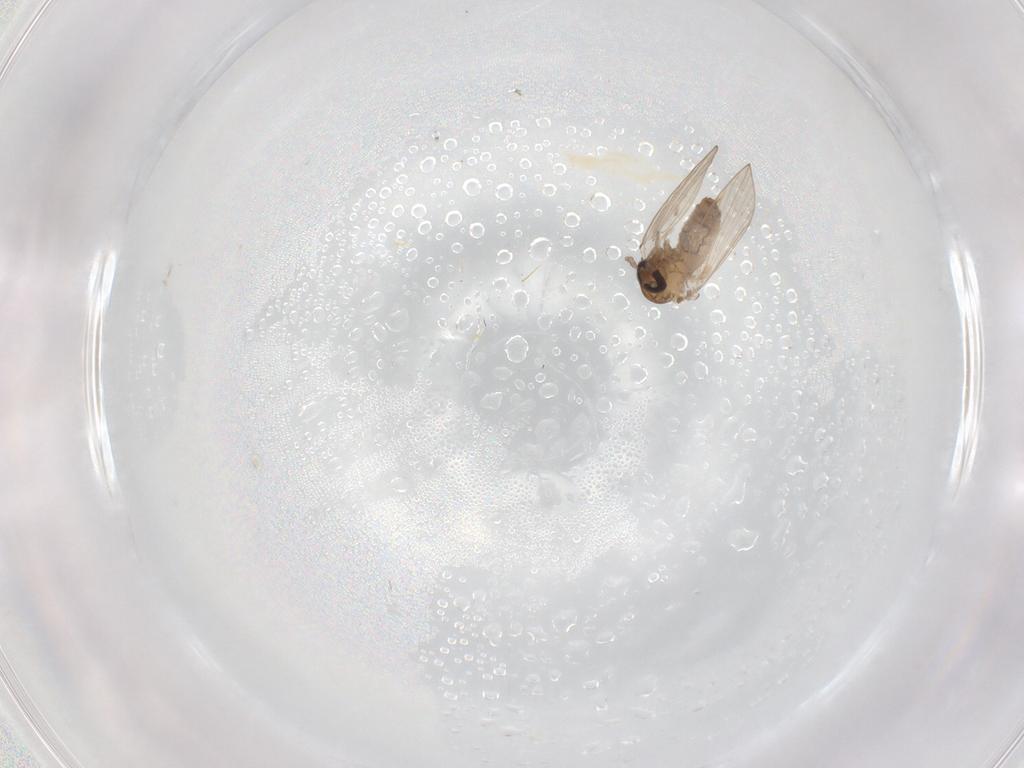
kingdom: Animalia
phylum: Arthropoda
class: Insecta
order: Diptera
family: Psychodidae
